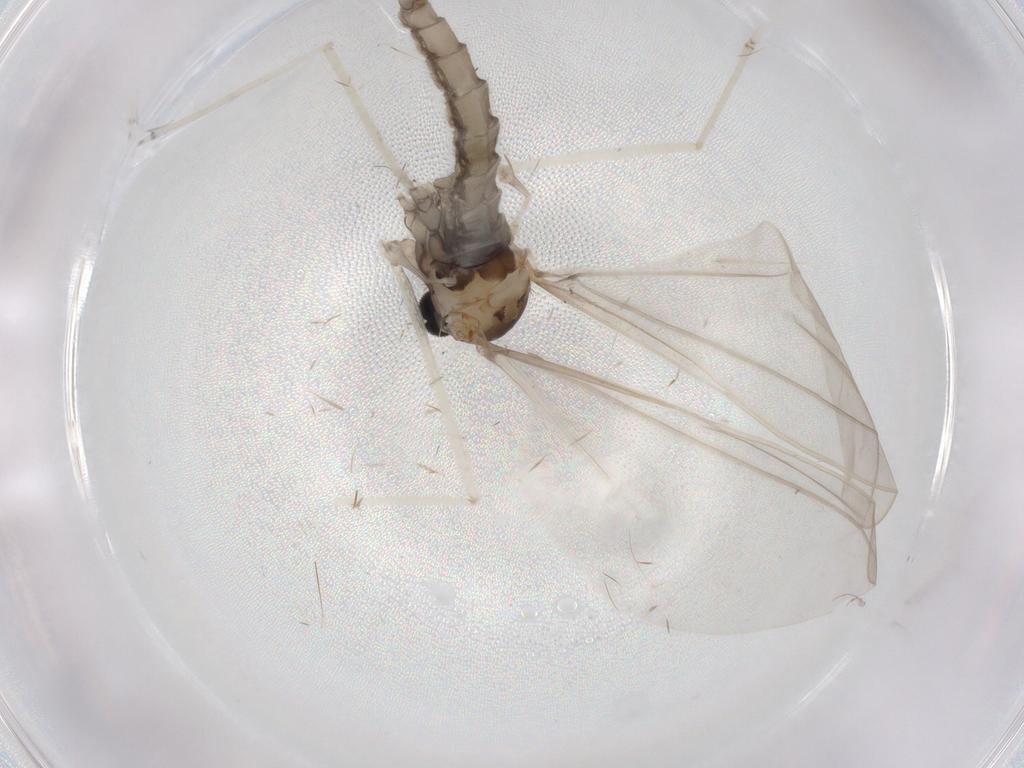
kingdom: Animalia
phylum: Arthropoda
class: Insecta
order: Diptera
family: Cecidomyiidae
